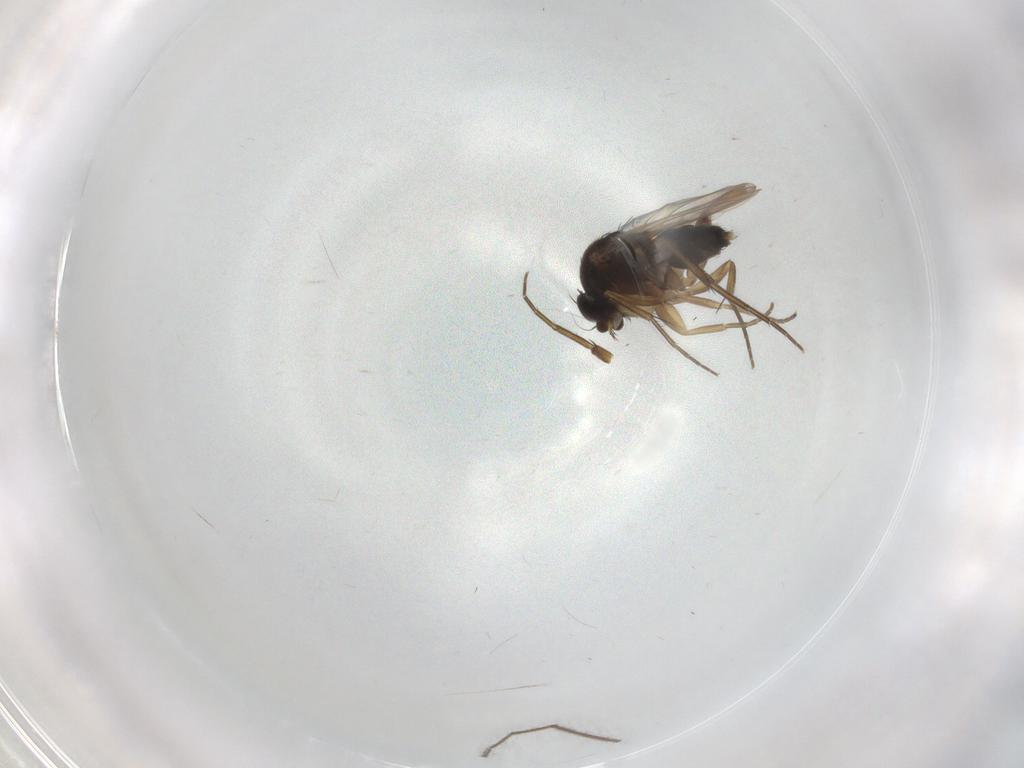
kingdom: Animalia
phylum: Arthropoda
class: Insecta
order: Diptera
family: Phoridae
